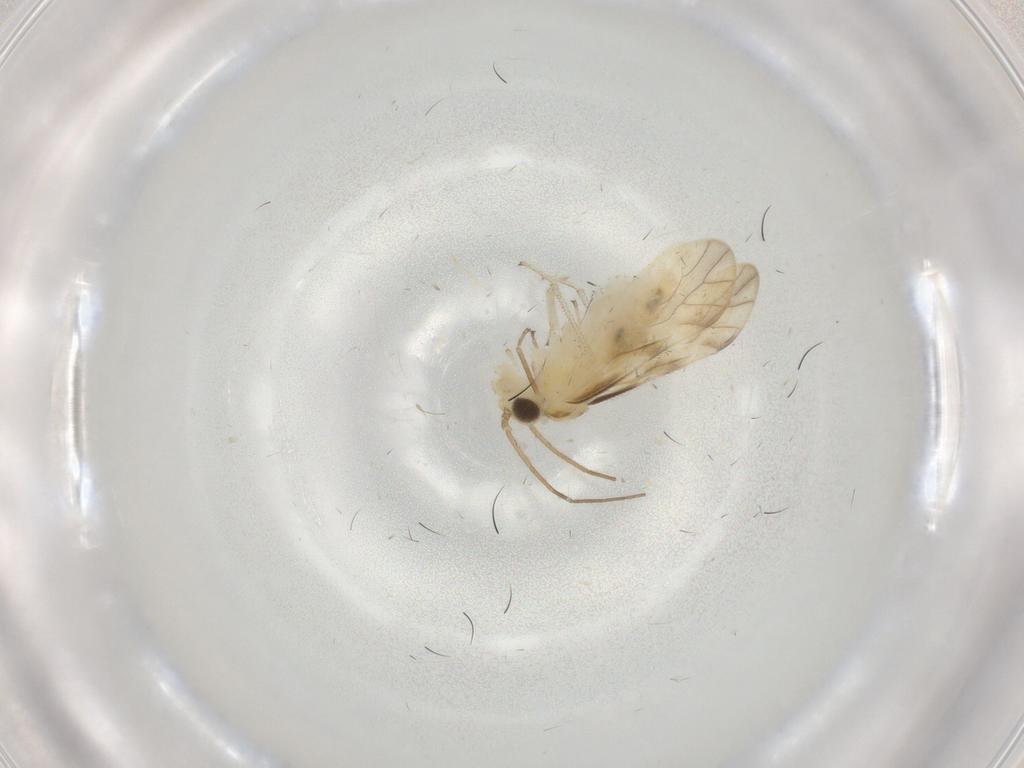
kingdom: Animalia
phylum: Arthropoda
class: Insecta
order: Psocodea
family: Caeciliusidae
